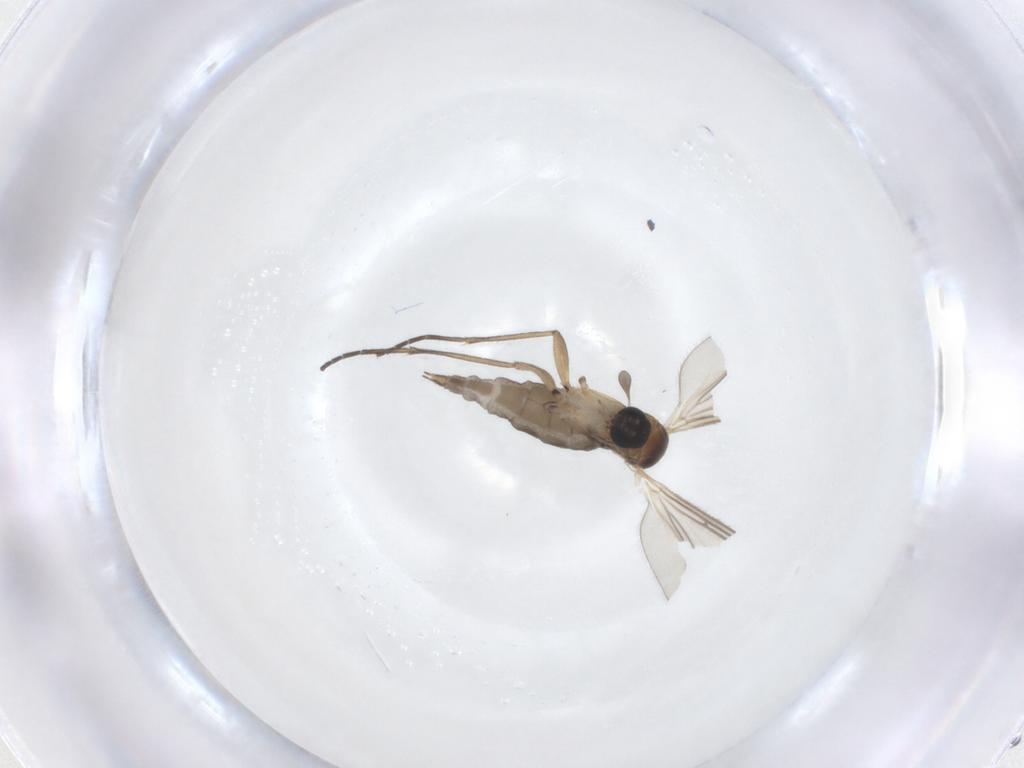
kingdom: Animalia
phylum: Arthropoda
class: Insecta
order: Diptera
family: Sciaridae
